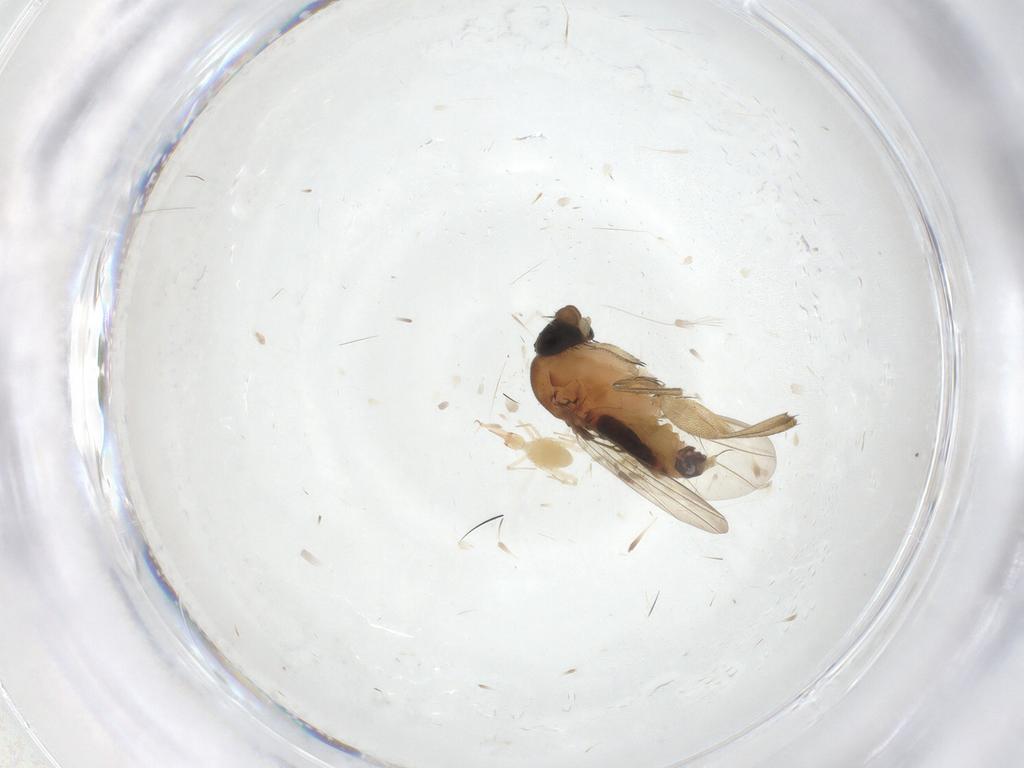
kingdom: Animalia
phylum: Arthropoda
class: Insecta
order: Diptera
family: Phoridae
